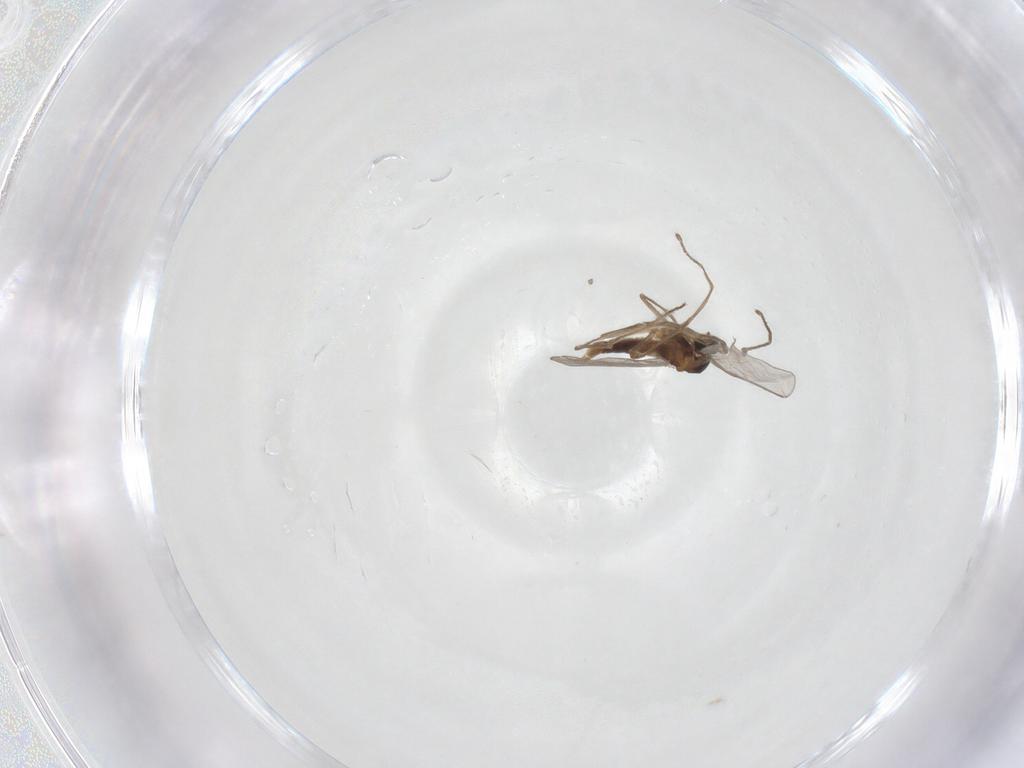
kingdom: Animalia
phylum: Arthropoda
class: Insecta
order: Diptera
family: Cecidomyiidae
